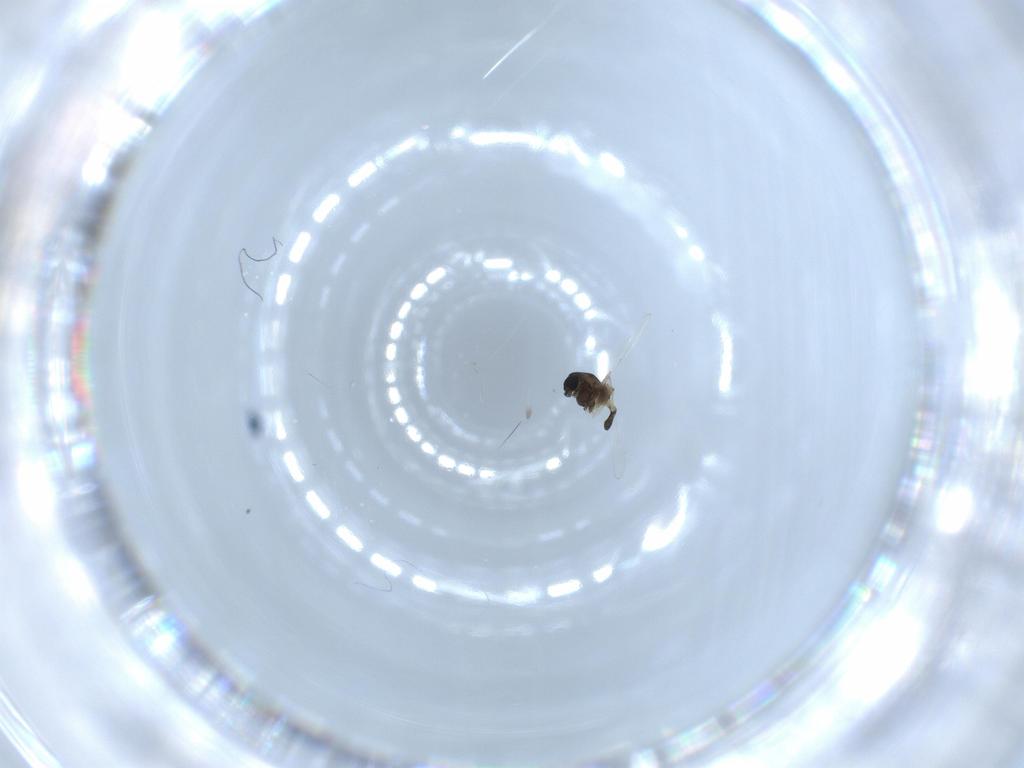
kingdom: Animalia
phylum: Arthropoda
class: Insecta
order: Diptera
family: Chironomidae
